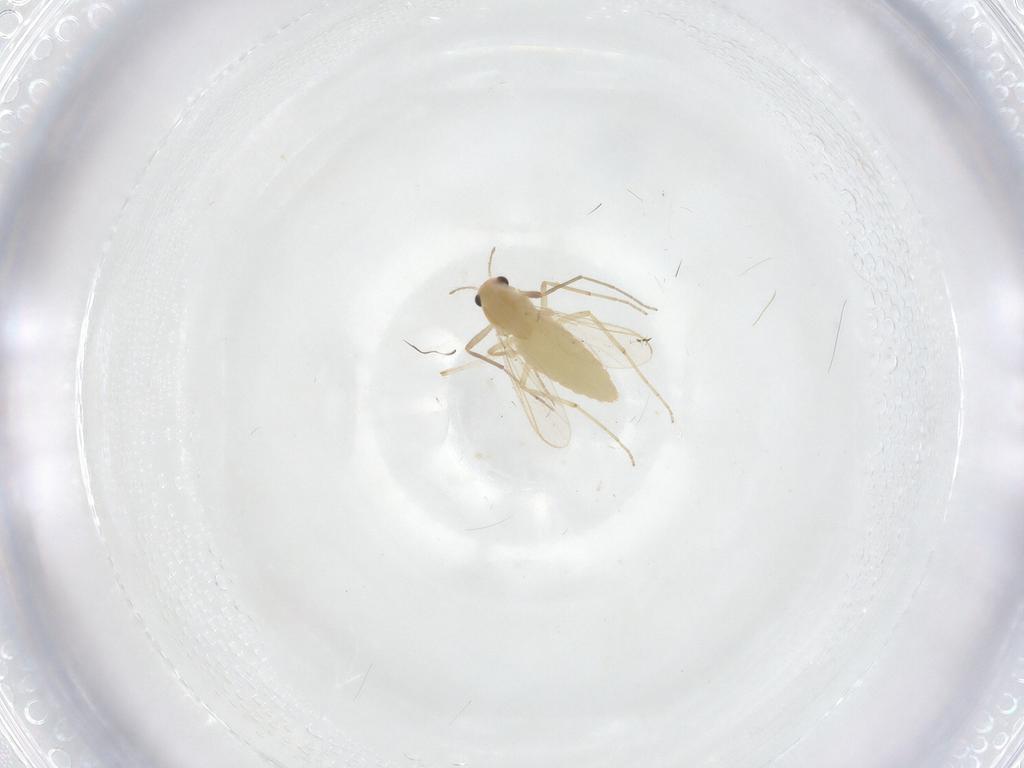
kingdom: Animalia
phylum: Arthropoda
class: Insecta
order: Diptera
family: Chironomidae
